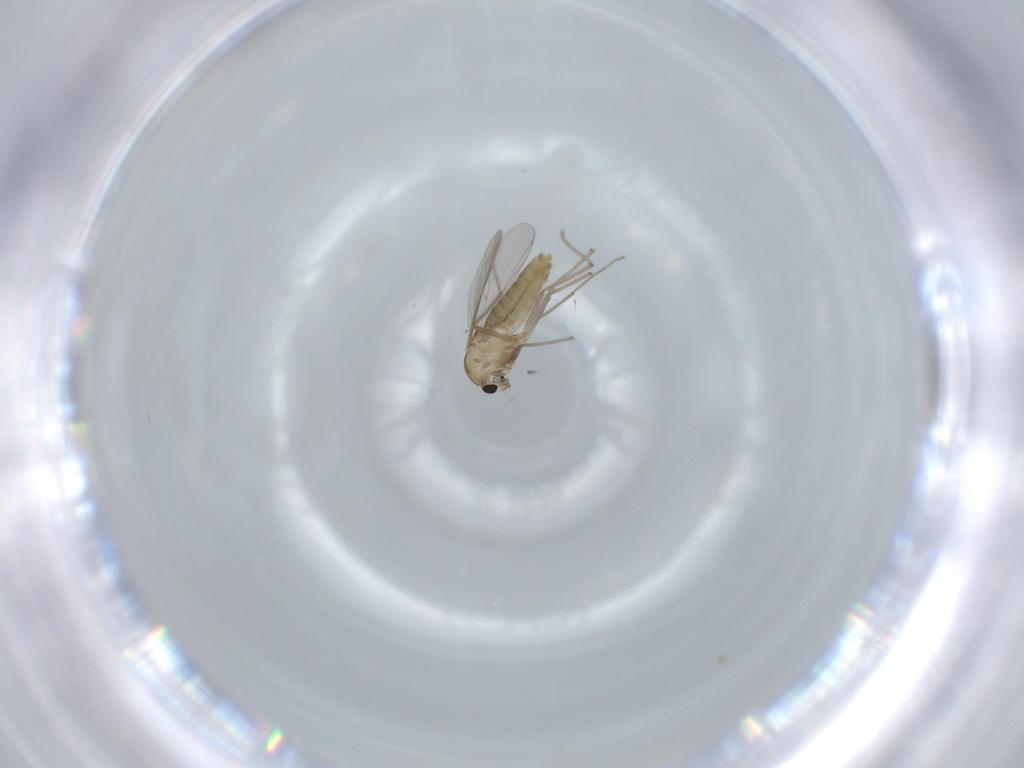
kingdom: Animalia
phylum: Arthropoda
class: Insecta
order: Diptera
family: Chironomidae
